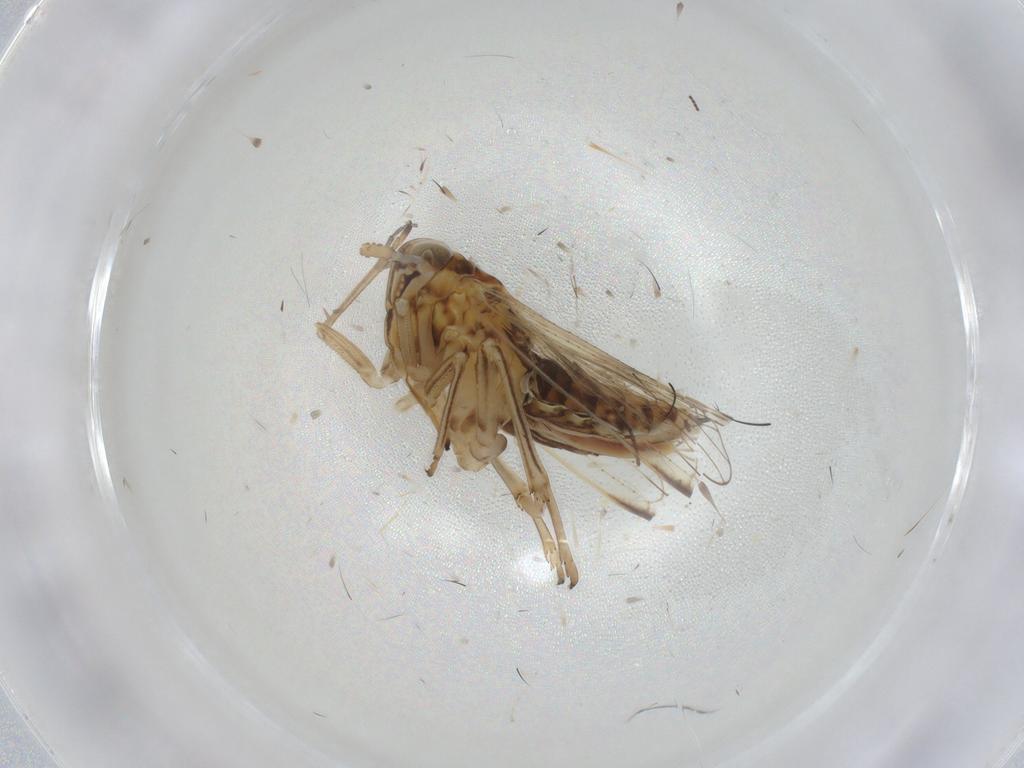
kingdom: Animalia
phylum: Arthropoda
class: Insecta
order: Hemiptera
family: Delphacidae
